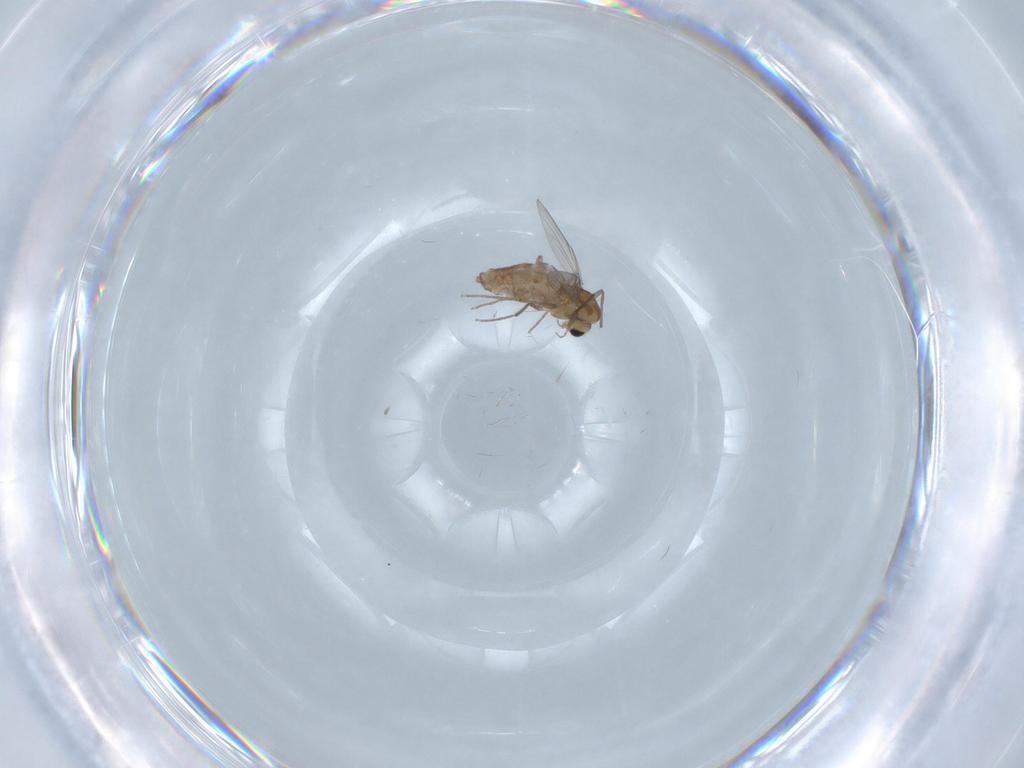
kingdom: Animalia
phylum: Arthropoda
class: Insecta
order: Diptera
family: Chironomidae
